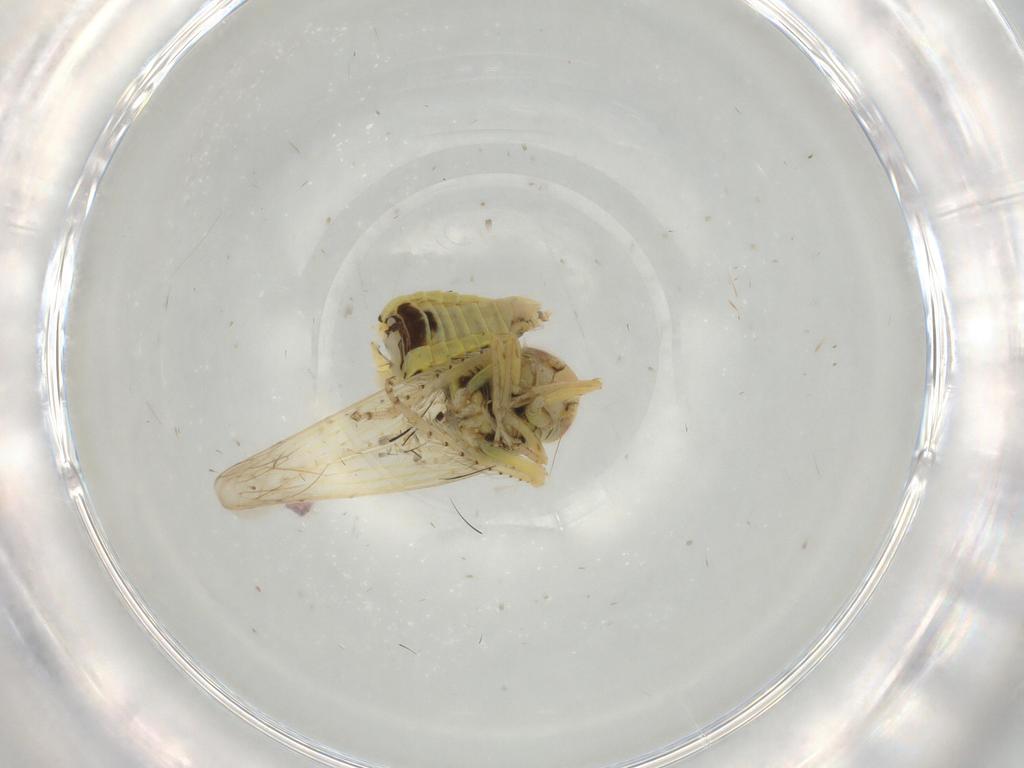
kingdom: Animalia
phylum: Arthropoda
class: Insecta
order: Hemiptera
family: Cicadellidae
